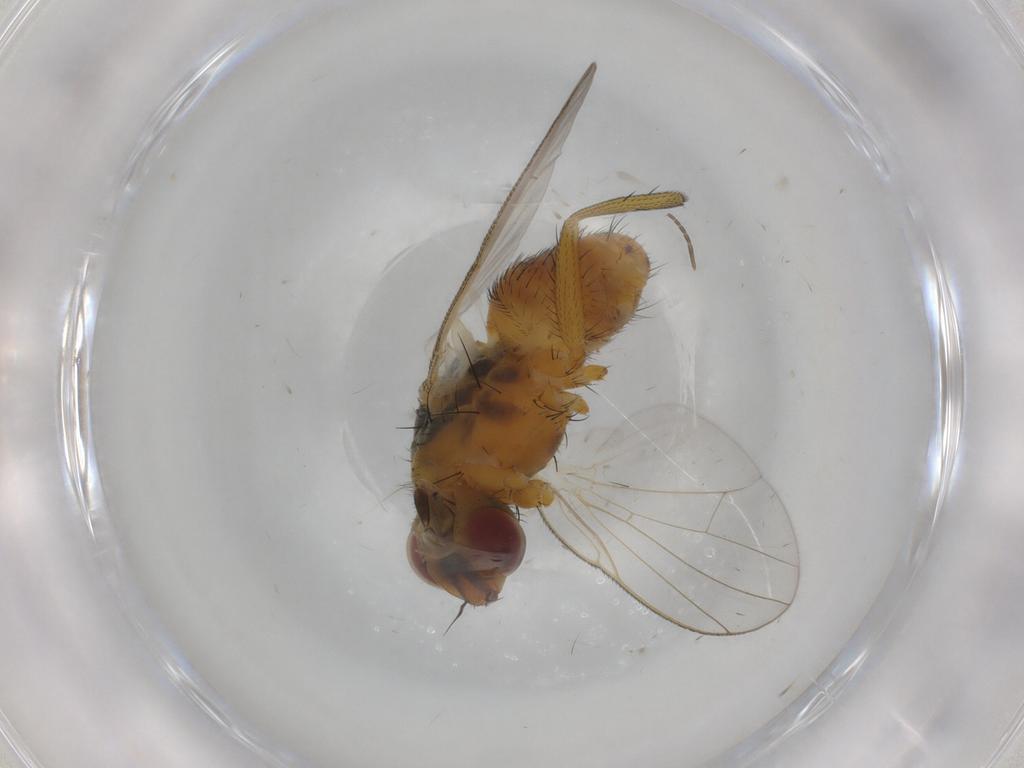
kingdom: Animalia
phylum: Arthropoda
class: Insecta
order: Diptera
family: Muscidae
